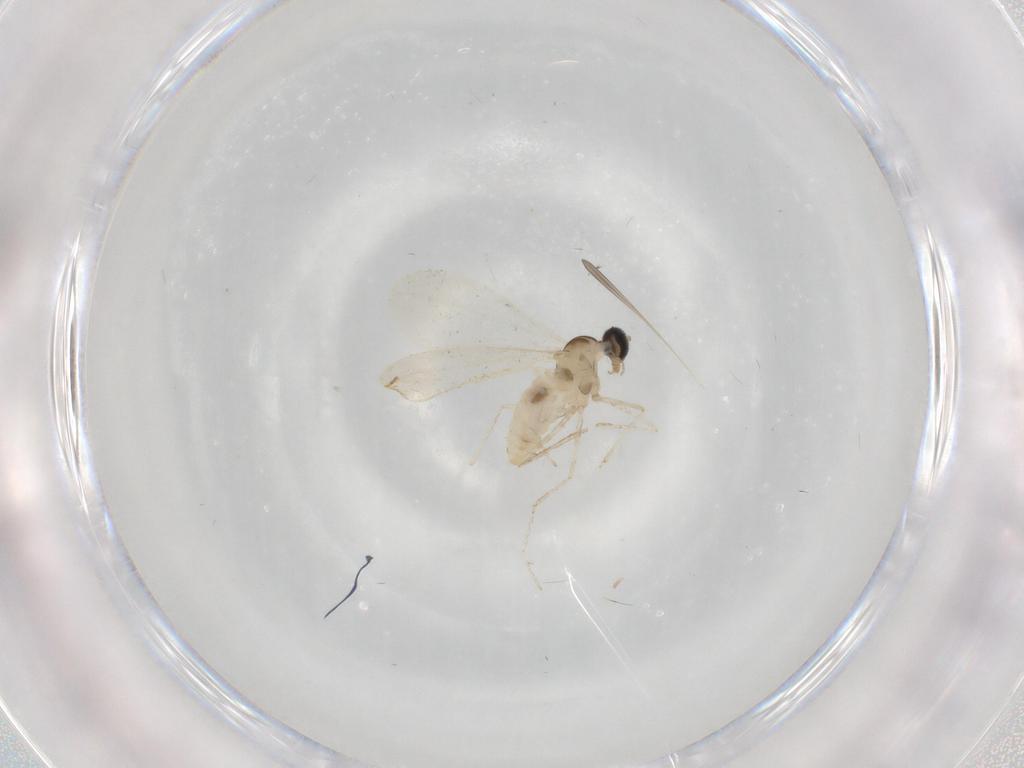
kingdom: Animalia
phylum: Arthropoda
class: Insecta
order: Diptera
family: Cecidomyiidae
